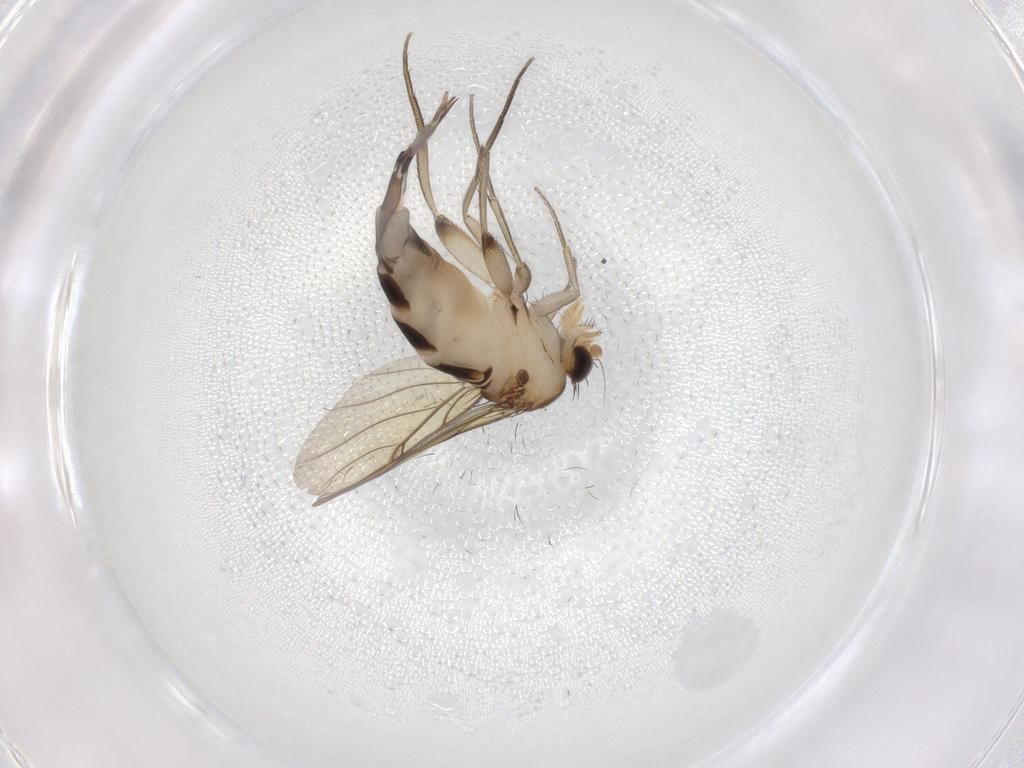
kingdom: Animalia
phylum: Arthropoda
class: Insecta
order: Diptera
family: Phoridae
